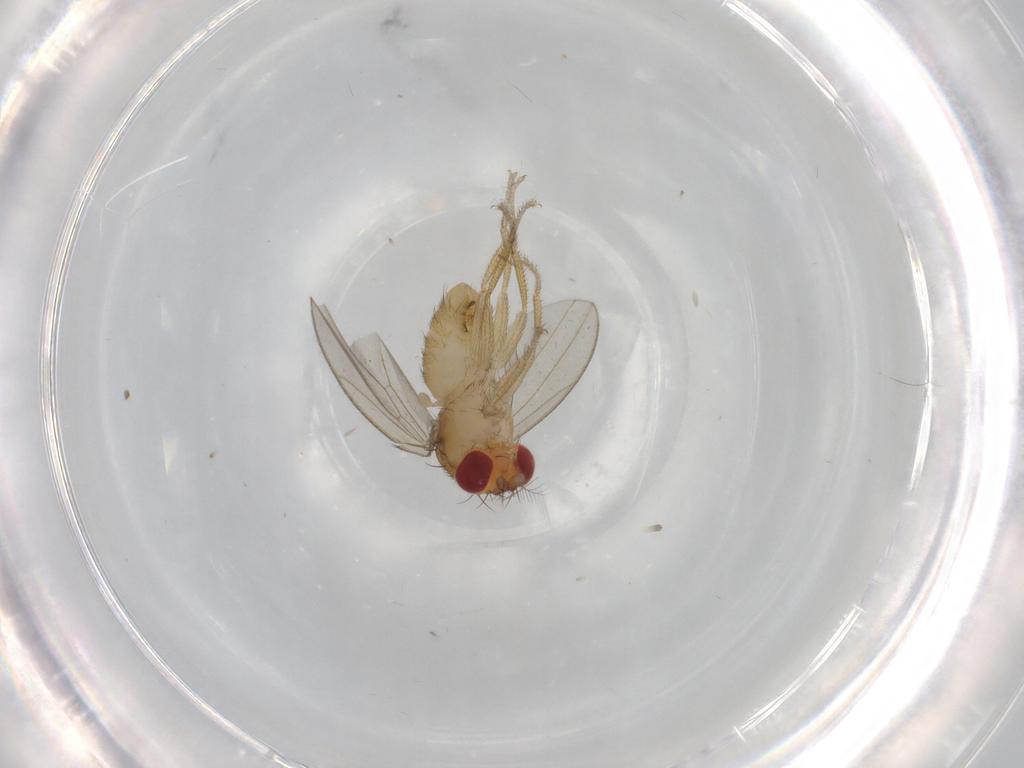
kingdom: Animalia
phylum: Arthropoda
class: Insecta
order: Diptera
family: Drosophilidae
